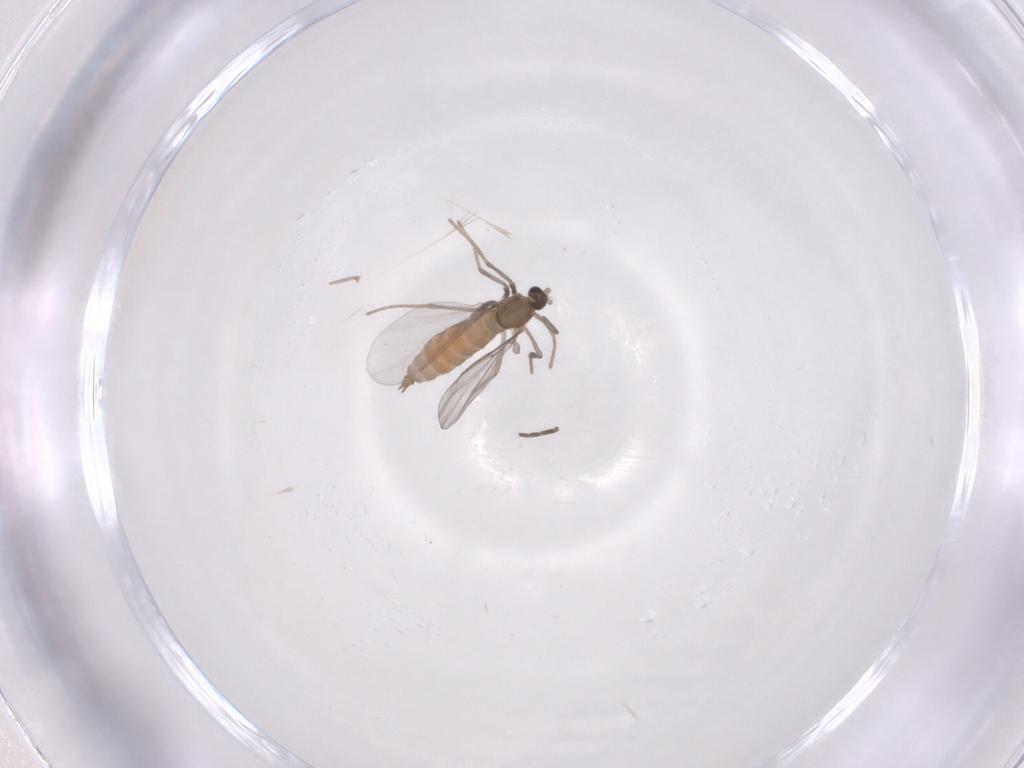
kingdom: Animalia
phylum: Arthropoda
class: Insecta
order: Diptera
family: Cecidomyiidae
